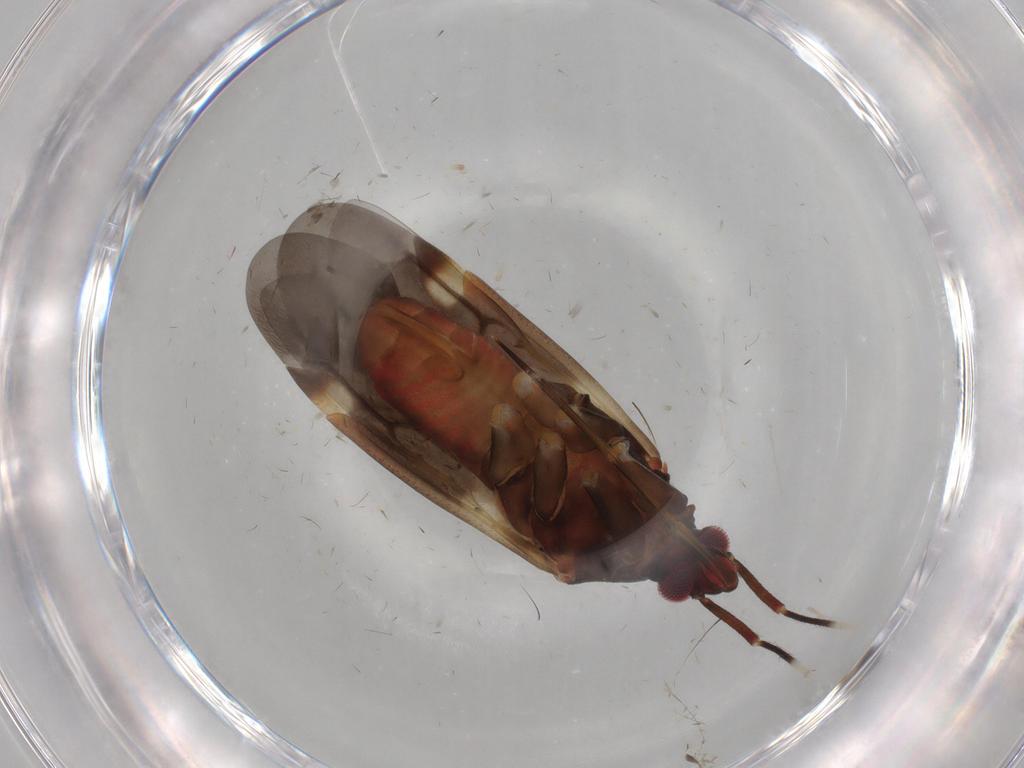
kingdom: Animalia
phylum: Arthropoda
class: Insecta
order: Hemiptera
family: Miridae
